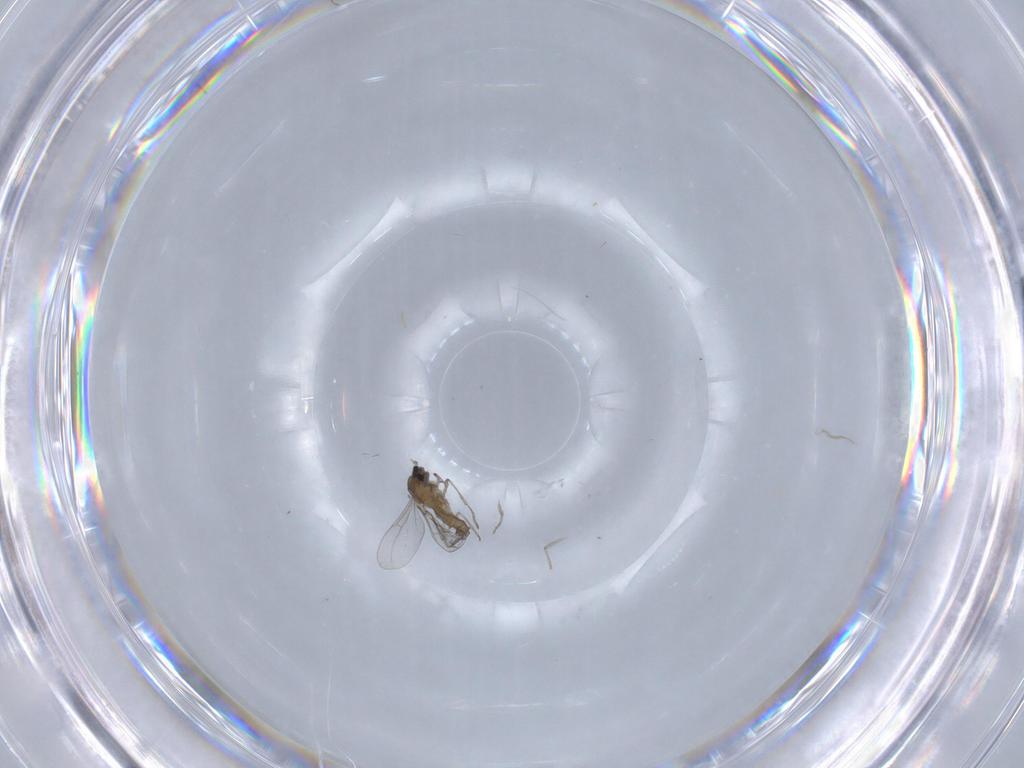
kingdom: Animalia
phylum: Arthropoda
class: Insecta
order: Diptera
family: Cecidomyiidae
